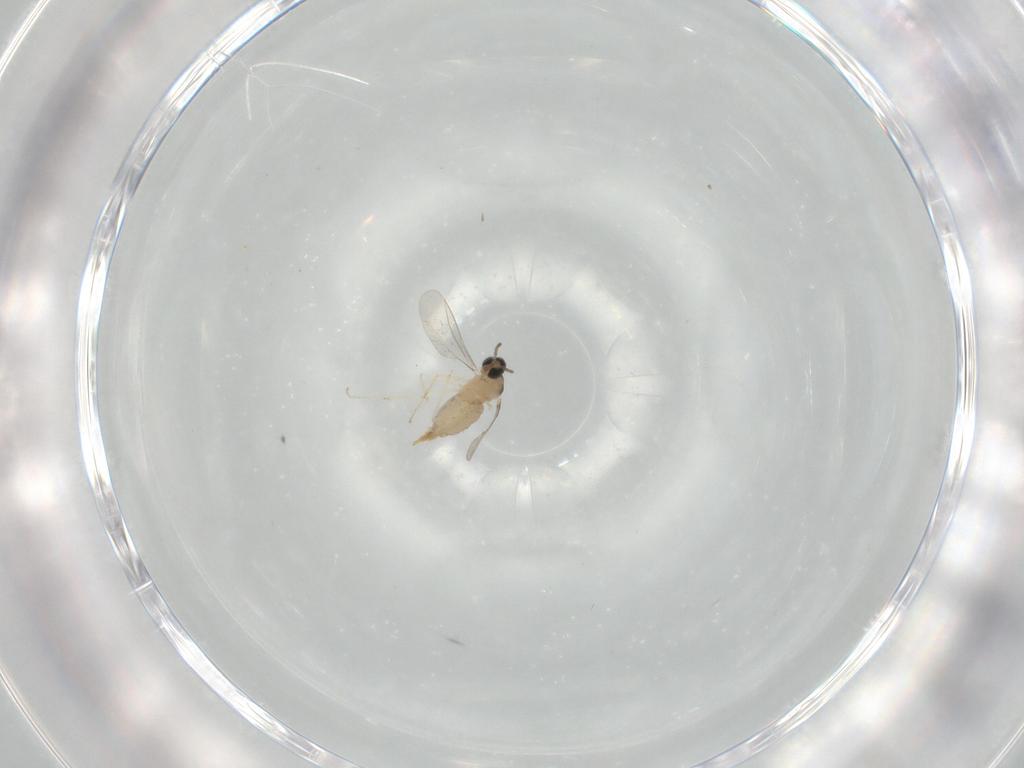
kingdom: Animalia
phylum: Arthropoda
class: Insecta
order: Diptera
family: Cecidomyiidae
